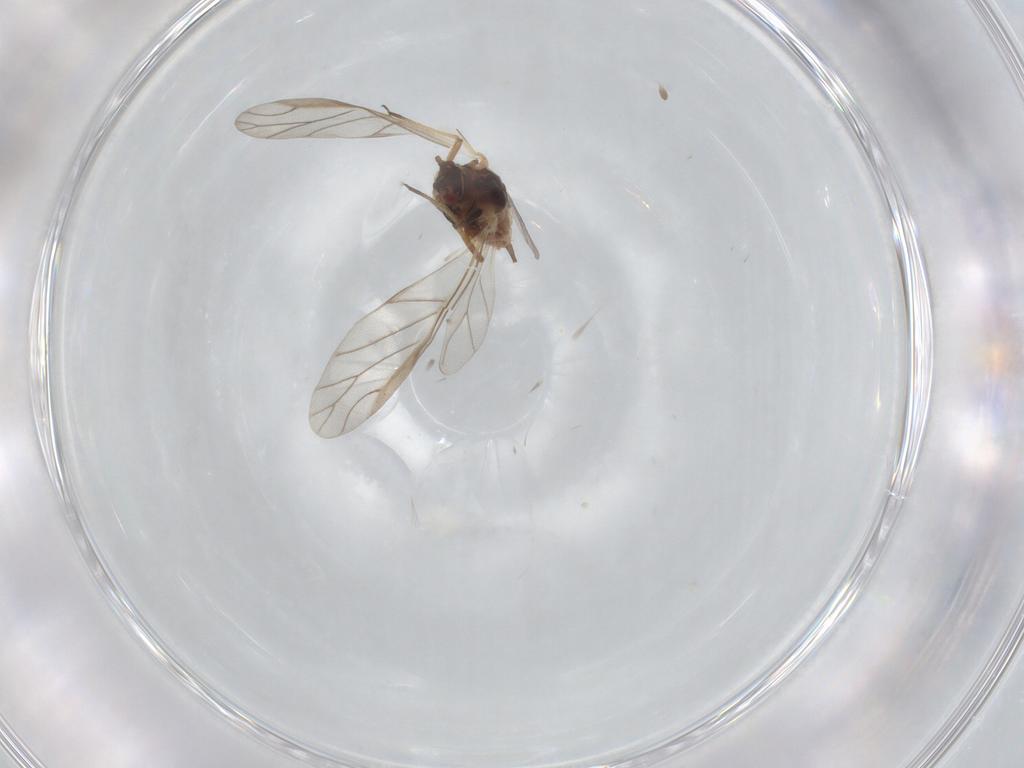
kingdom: Animalia
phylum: Arthropoda
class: Insecta
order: Hemiptera
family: Aphididae
